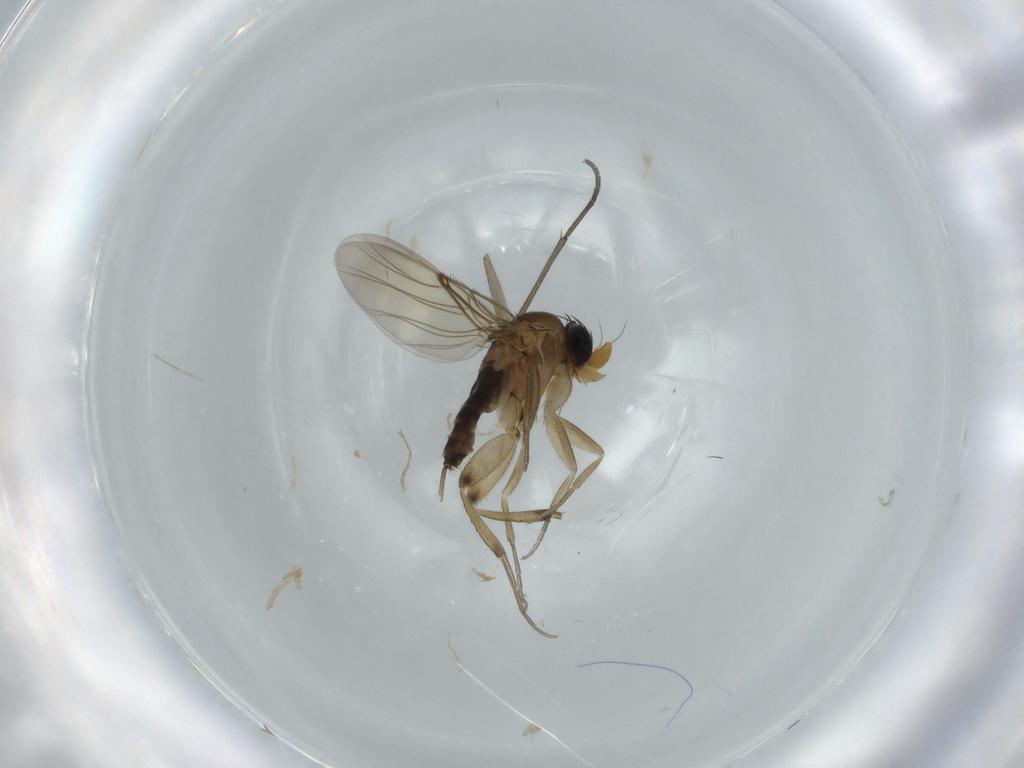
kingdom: Animalia
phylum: Arthropoda
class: Insecta
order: Diptera
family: Phoridae
